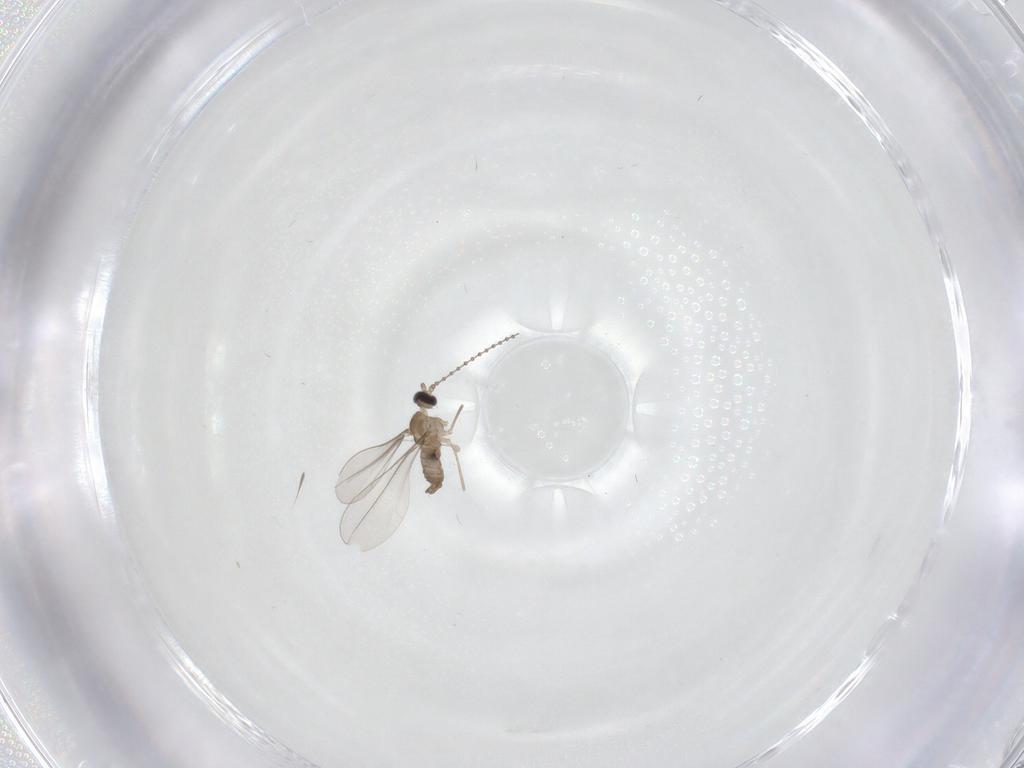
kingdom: Animalia
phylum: Arthropoda
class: Insecta
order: Diptera
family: Cecidomyiidae
